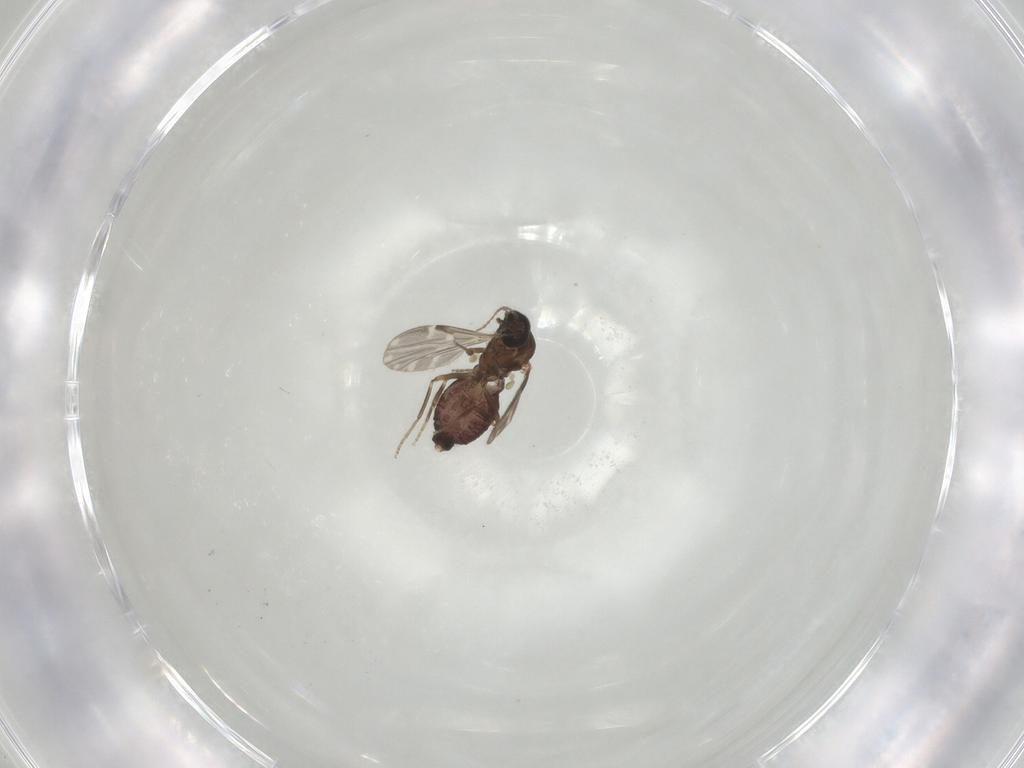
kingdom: Animalia
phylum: Arthropoda
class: Insecta
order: Diptera
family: Ceratopogonidae
